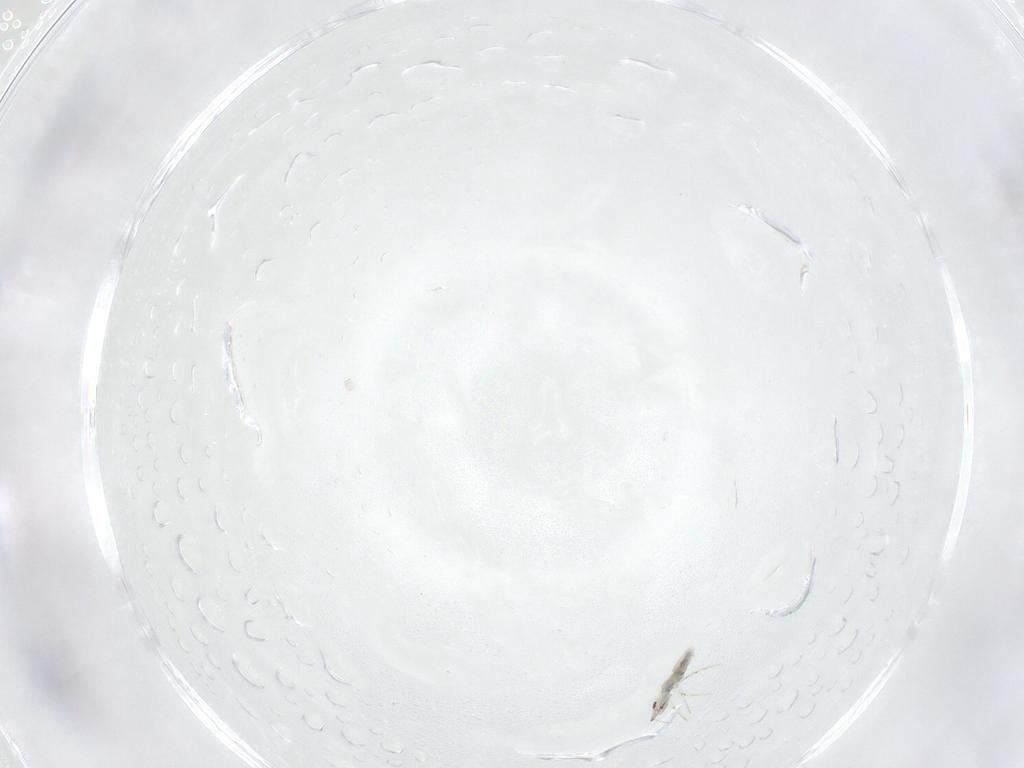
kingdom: Animalia
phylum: Arthropoda
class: Collembola
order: Entomobryomorpha
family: Paronellidae
